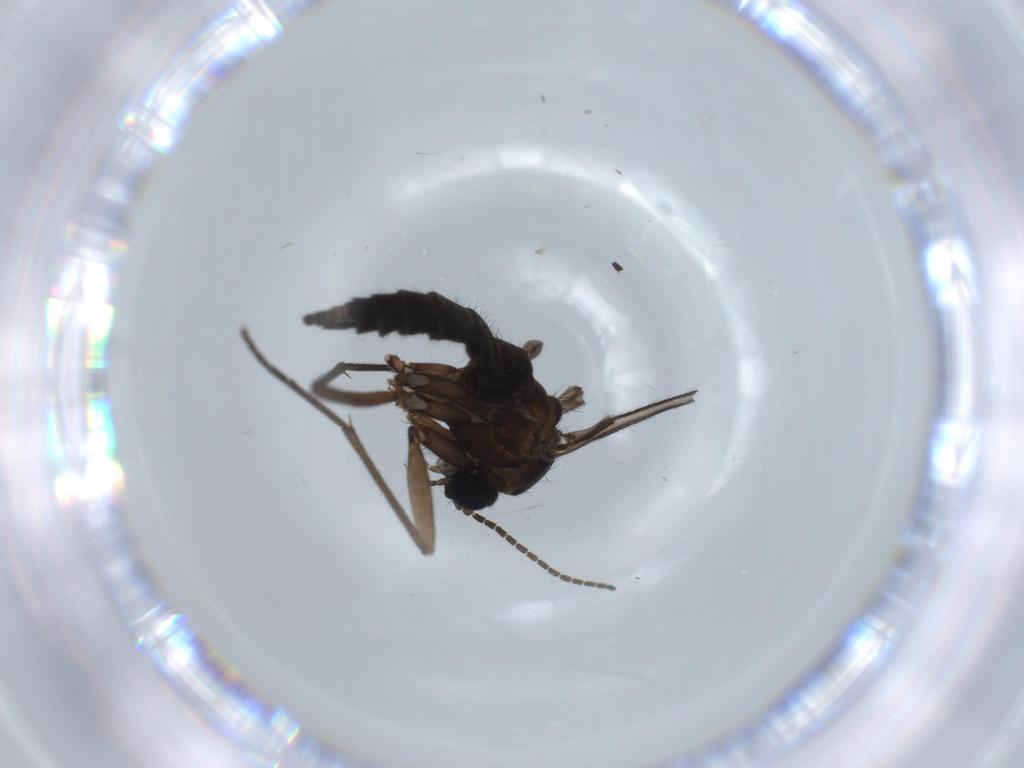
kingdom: Animalia
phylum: Arthropoda
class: Insecta
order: Diptera
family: Sciaridae
